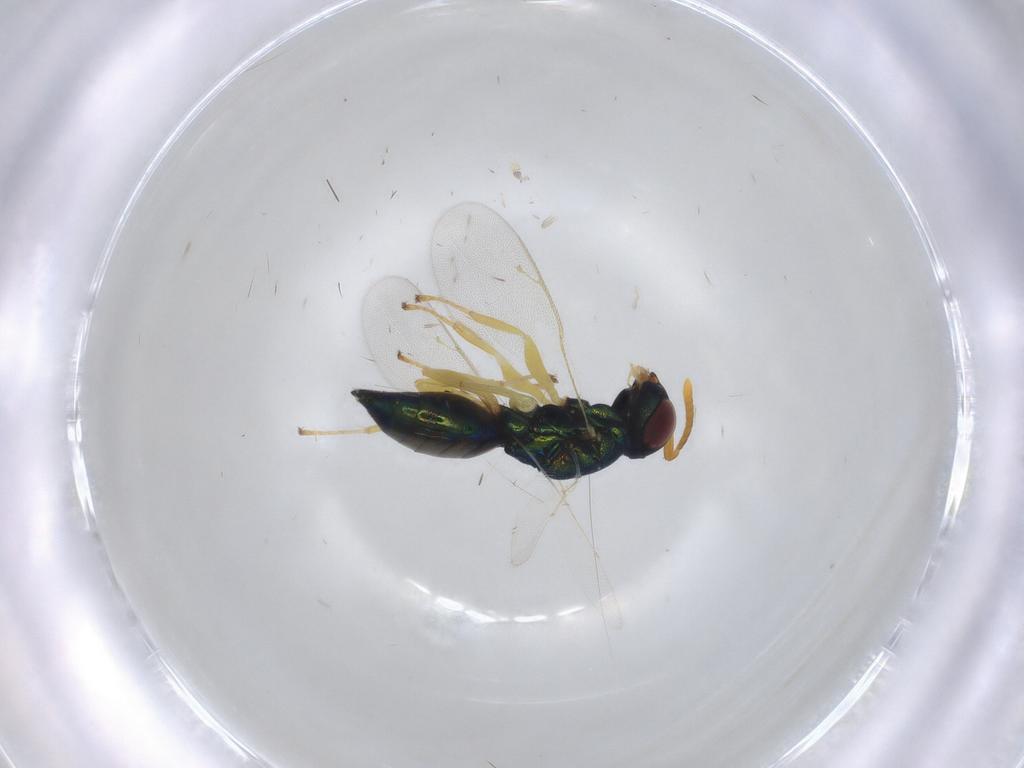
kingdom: Animalia
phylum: Arthropoda
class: Insecta
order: Hymenoptera
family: Pteromalidae
